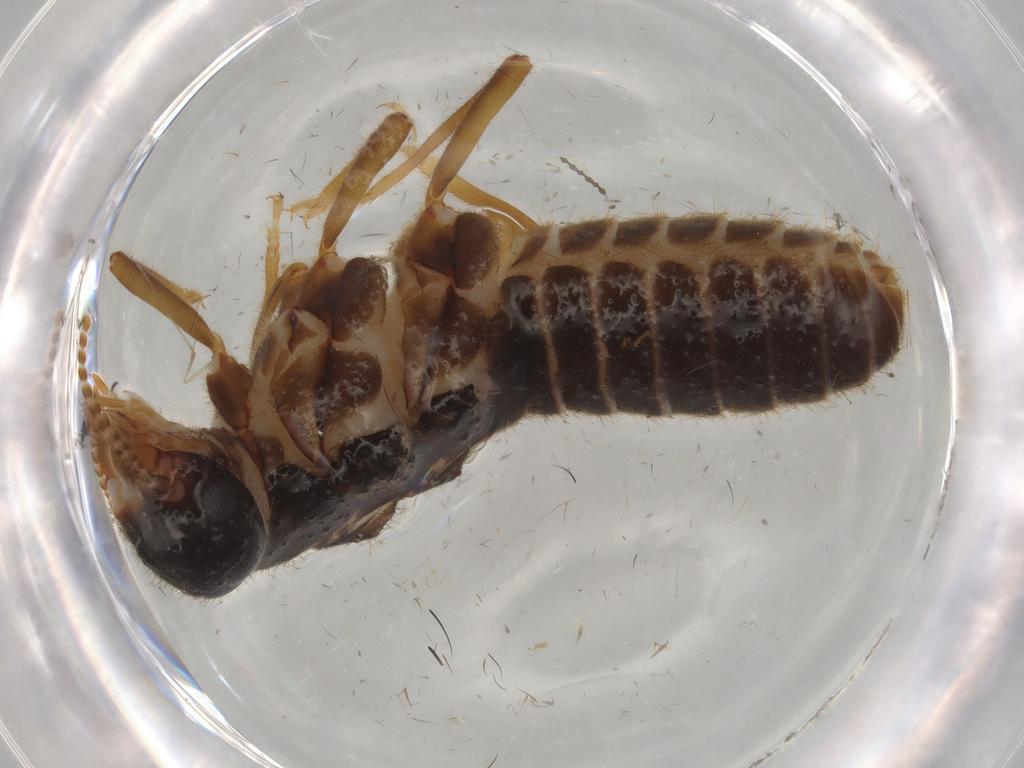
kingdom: Animalia
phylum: Arthropoda
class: Insecta
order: Blattodea
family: Termitidae
